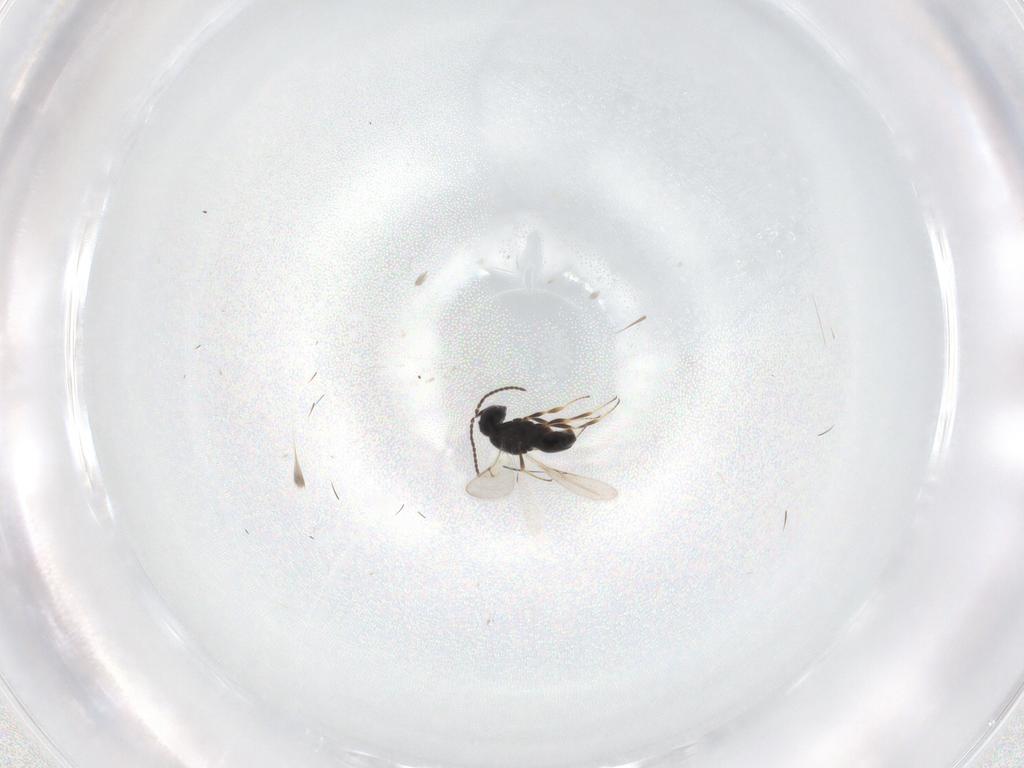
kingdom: Animalia
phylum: Arthropoda
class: Insecta
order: Hymenoptera
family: Scelionidae
